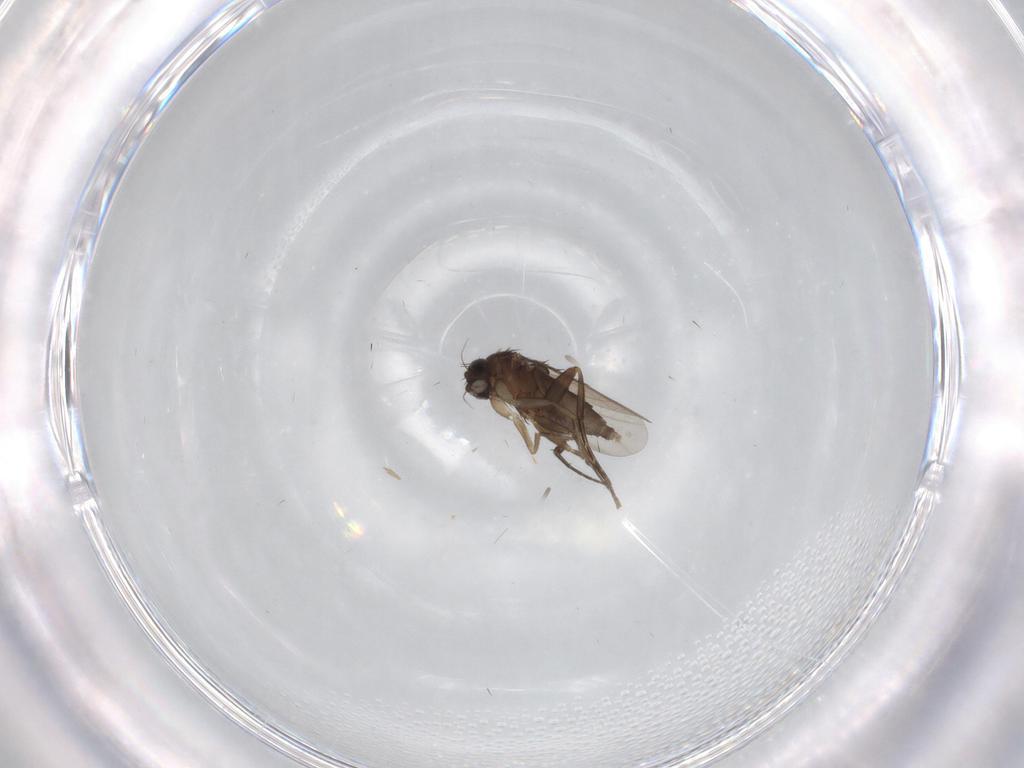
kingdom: Animalia
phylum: Arthropoda
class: Insecta
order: Diptera
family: Phoridae
